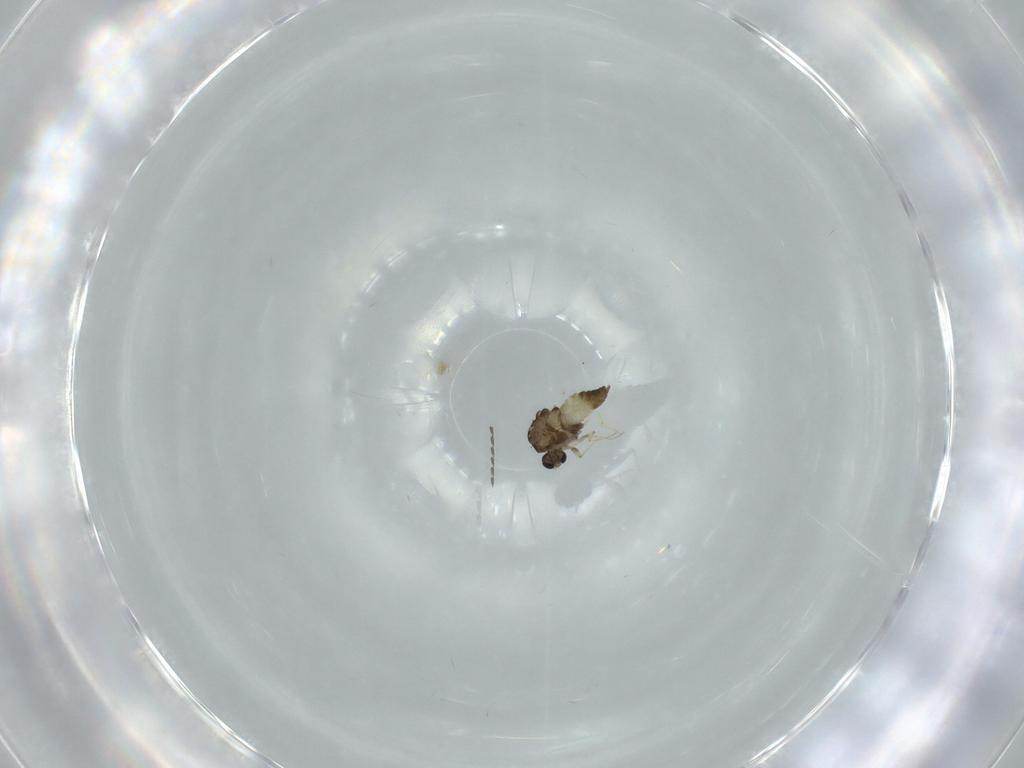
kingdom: Animalia
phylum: Arthropoda
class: Insecta
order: Diptera
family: Chironomidae
